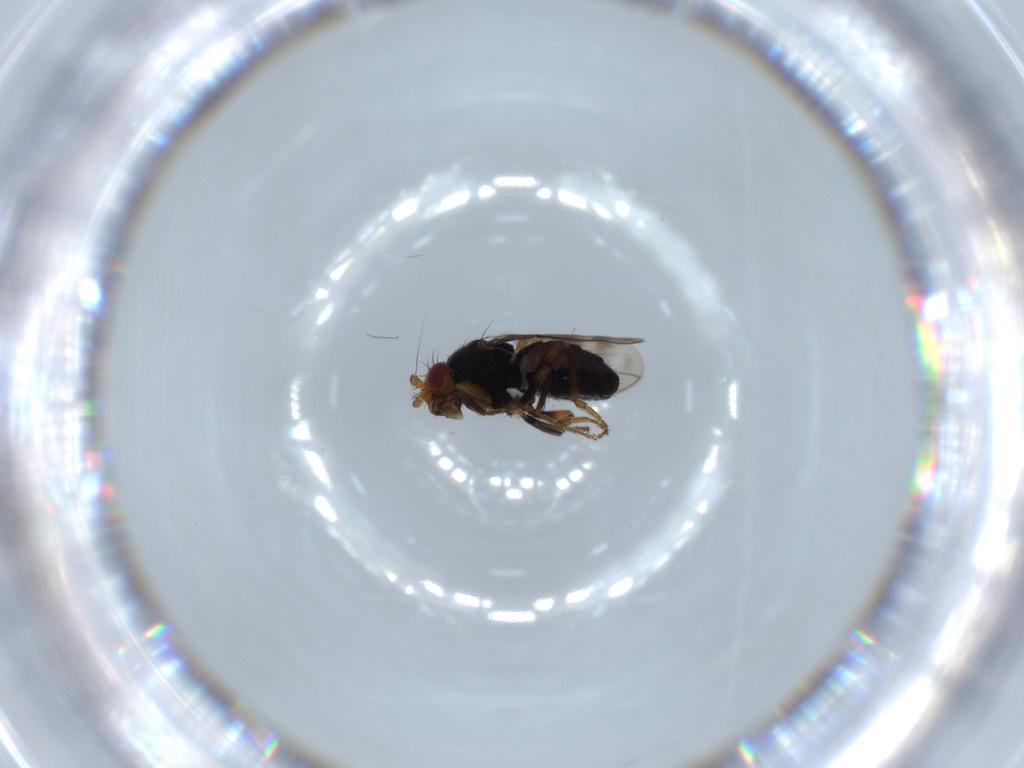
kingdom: Animalia
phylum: Arthropoda
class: Insecta
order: Diptera
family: Sphaeroceridae
